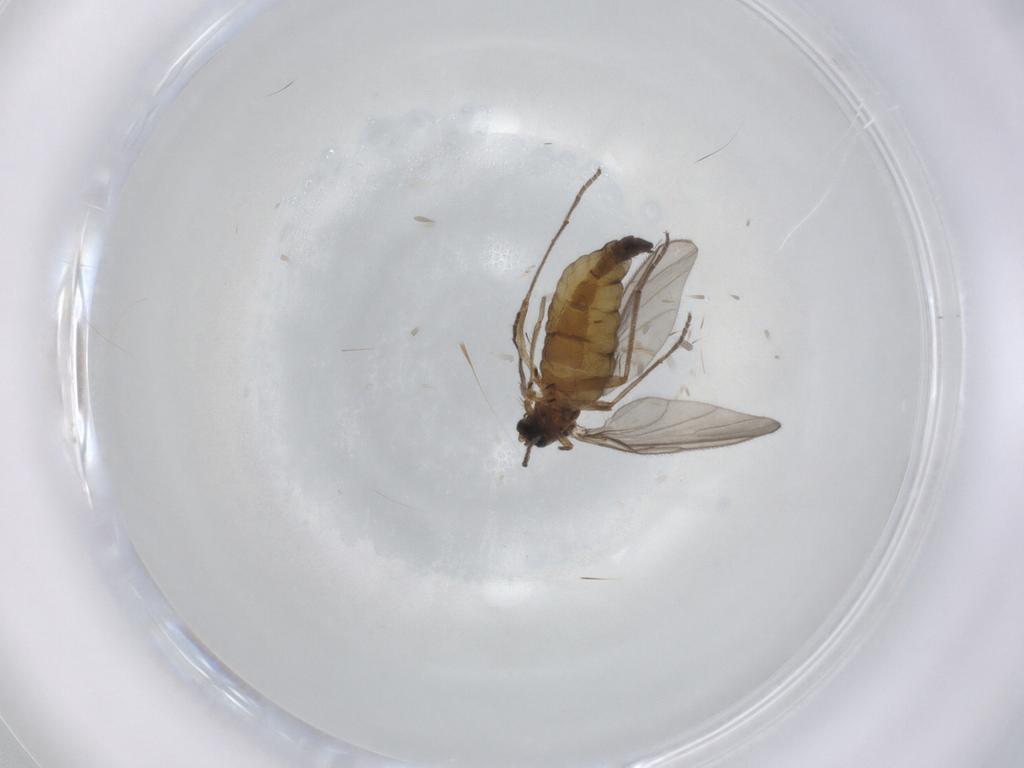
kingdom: Animalia
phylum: Arthropoda
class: Insecta
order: Diptera
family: Sciaridae
